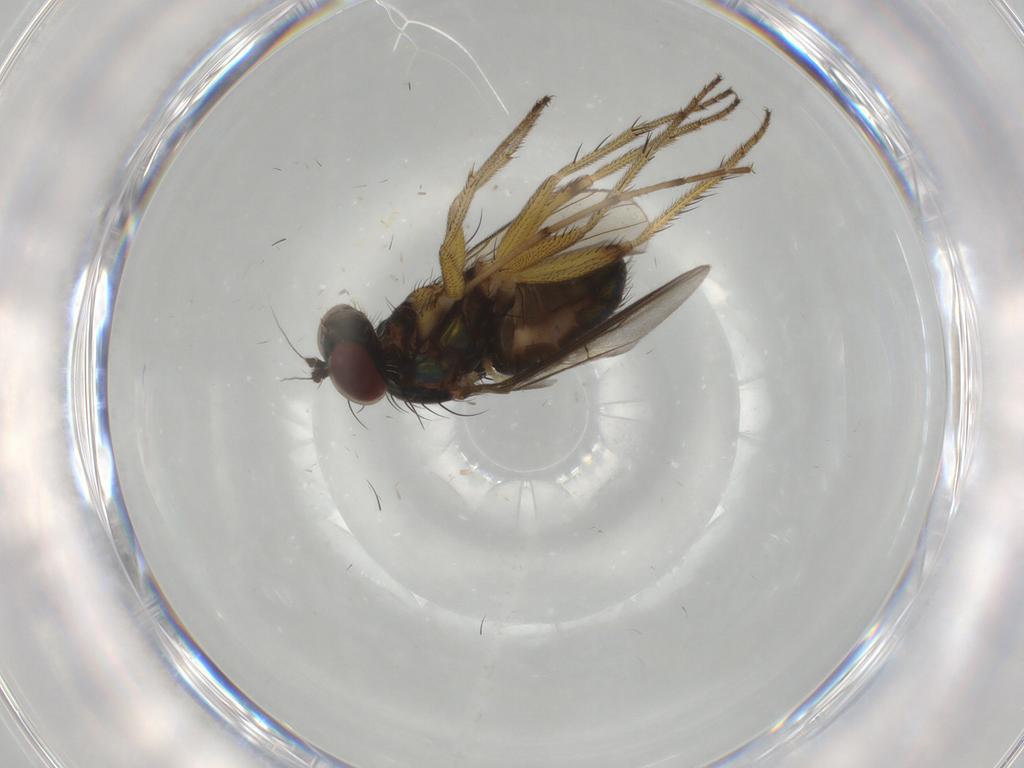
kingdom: Animalia
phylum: Arthropoda
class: Insecta
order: Diptera
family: Dolichopodidae
